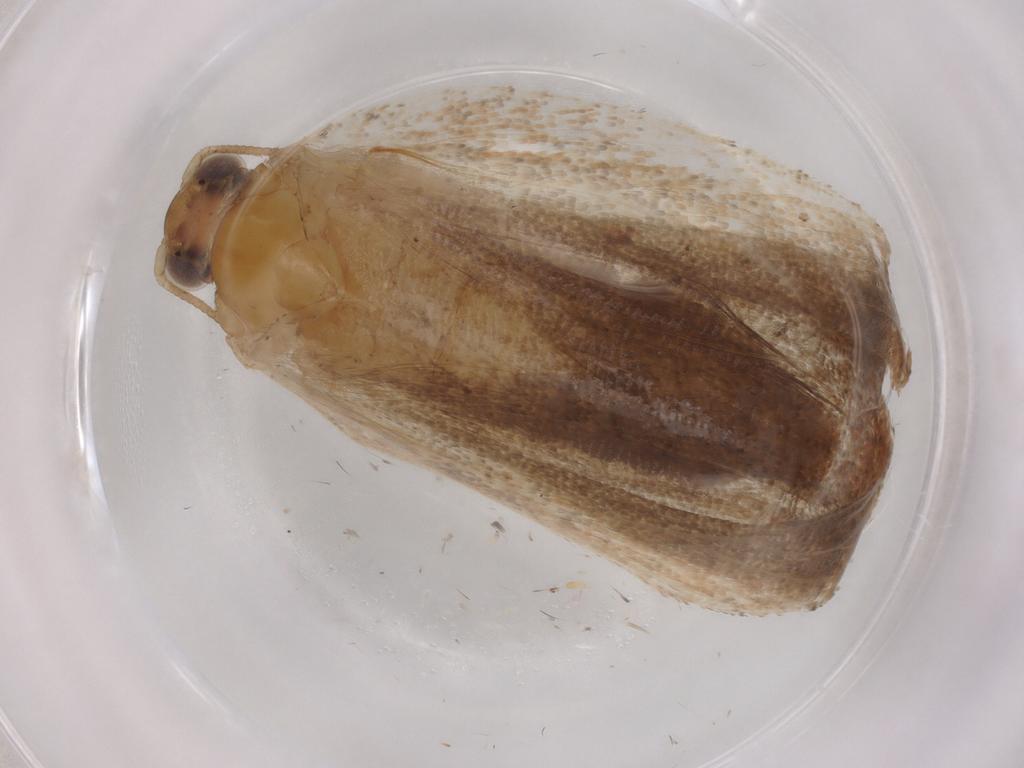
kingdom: Animalia
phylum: Arthropoda
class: Insecta
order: Lepidoptera
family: Nepticulidae
